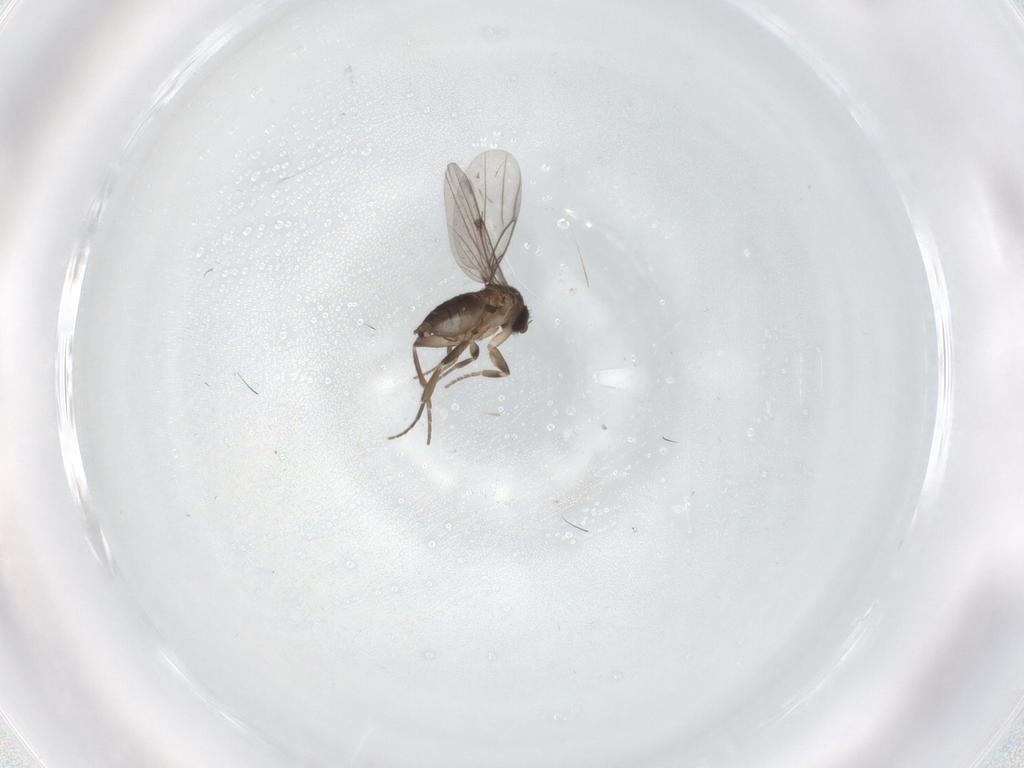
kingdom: Animalia
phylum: Arthropoda
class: Insecta
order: Diptera
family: Phoridae
